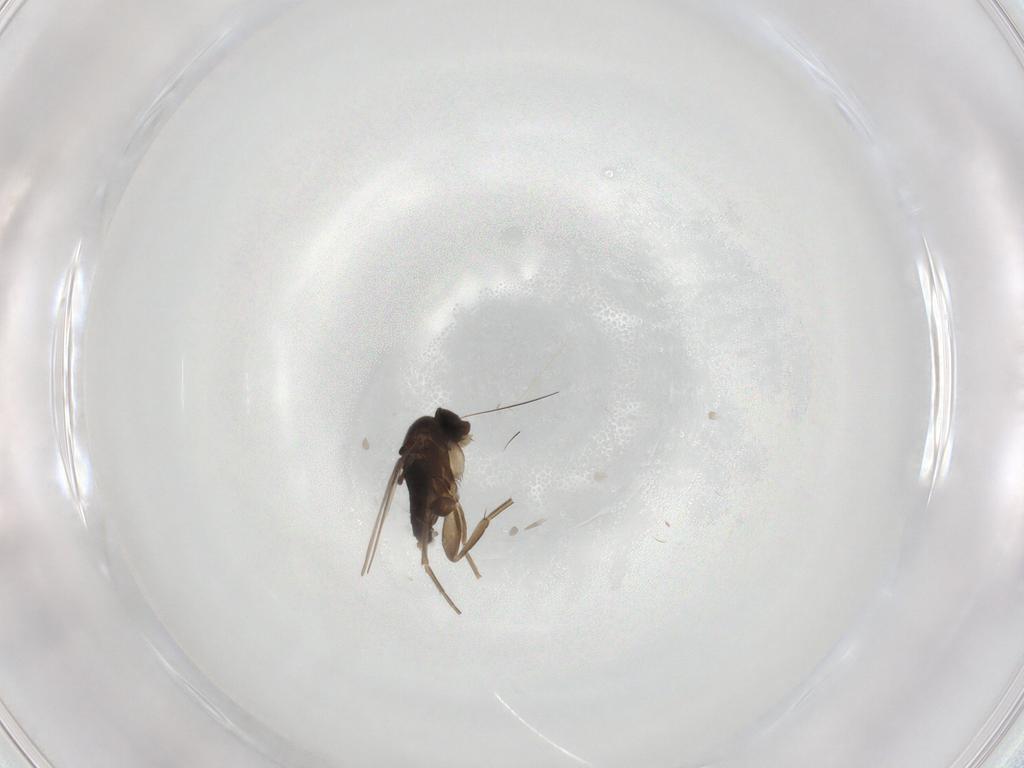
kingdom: Animalia
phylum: Arthropoda
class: Insecta
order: Diptera
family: Phoridae
